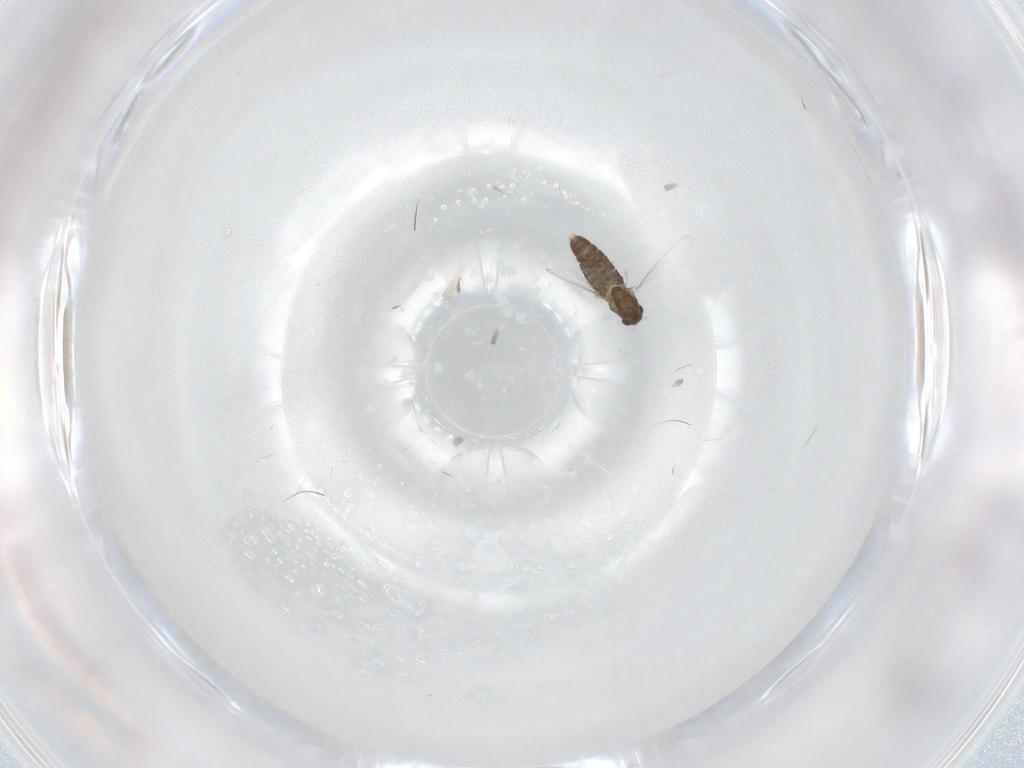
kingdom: Animalia
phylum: Arthropoda
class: Insecta
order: Diptera
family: Chironomidae
